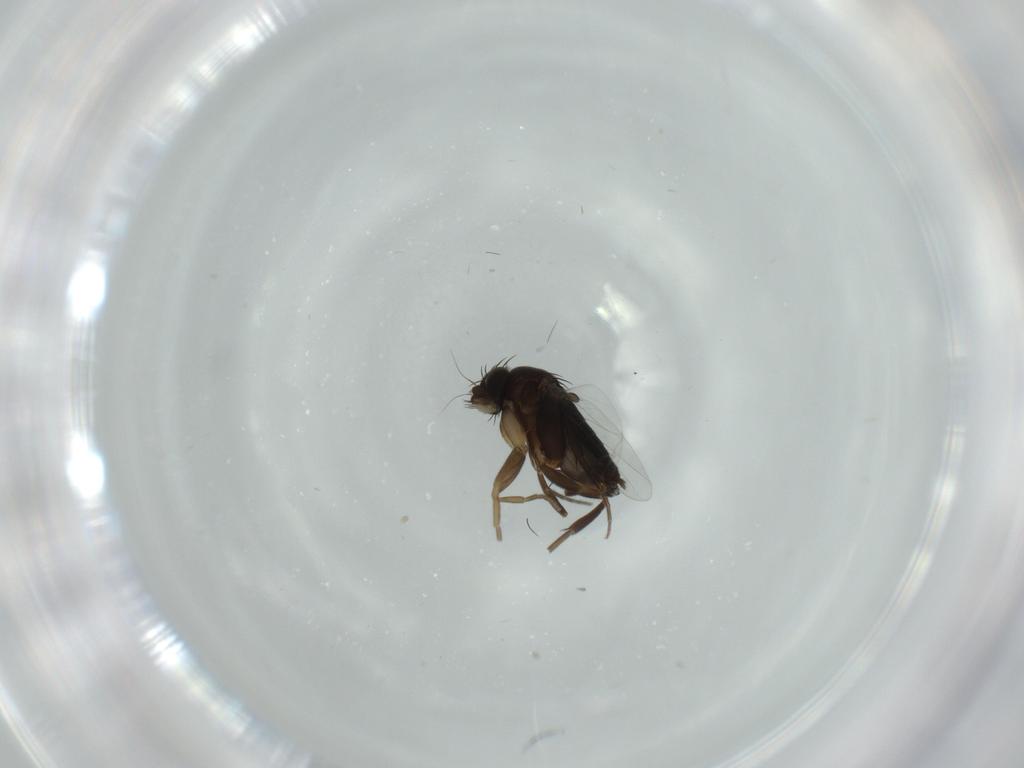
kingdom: Animalia
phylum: Arthropoda
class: Insecta
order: Diptera
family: Phoridae
